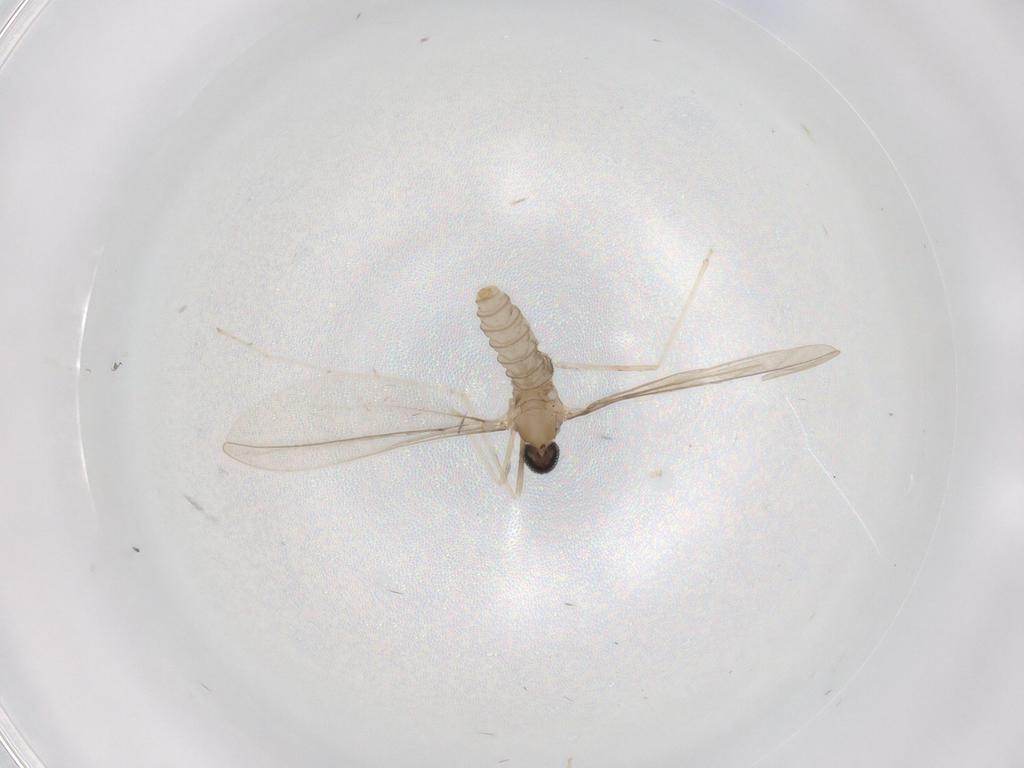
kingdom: Animalia
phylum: Arthropoda
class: Insecta
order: Diptera
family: Cecidomyiidae
